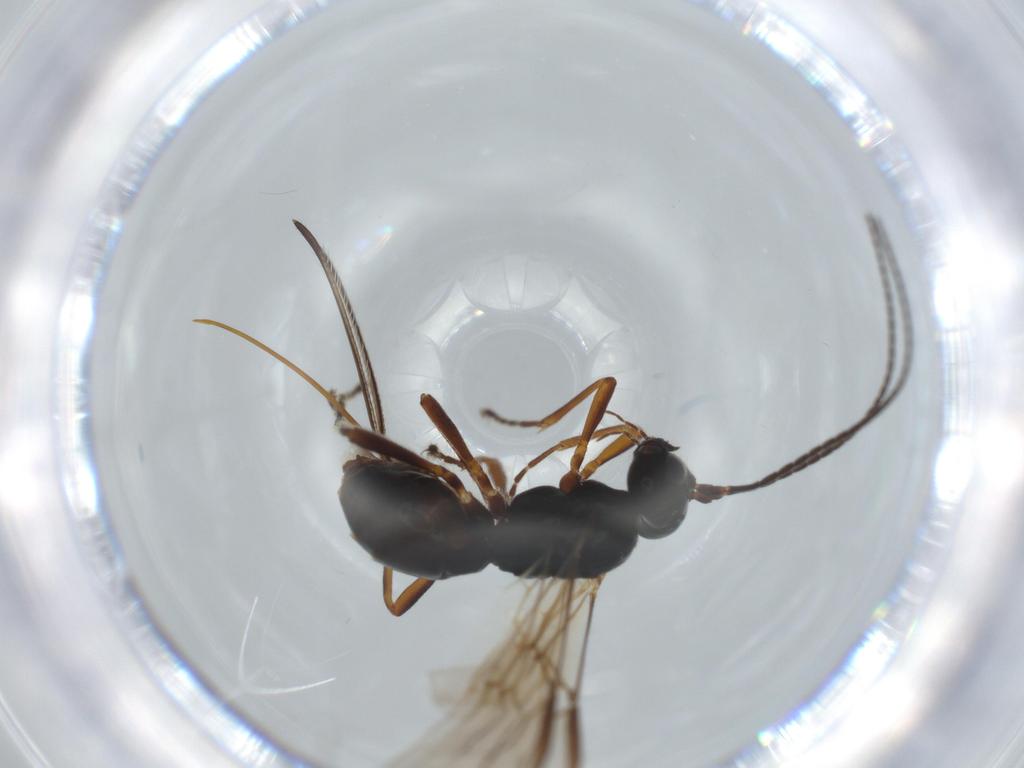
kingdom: Animalia
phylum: Arthropoda
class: Insecta
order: Hymenoptera
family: Braconidae
